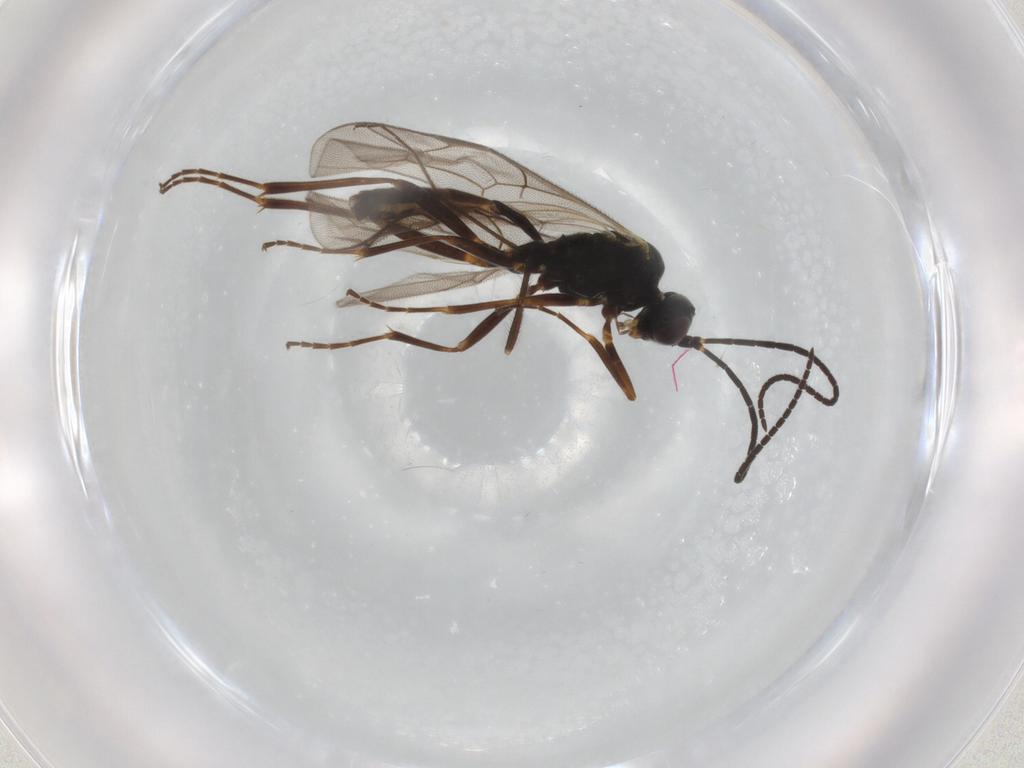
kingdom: Animalia
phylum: Arthropoda
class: Insecta
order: Hymenoptera
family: Ichneumonidae
